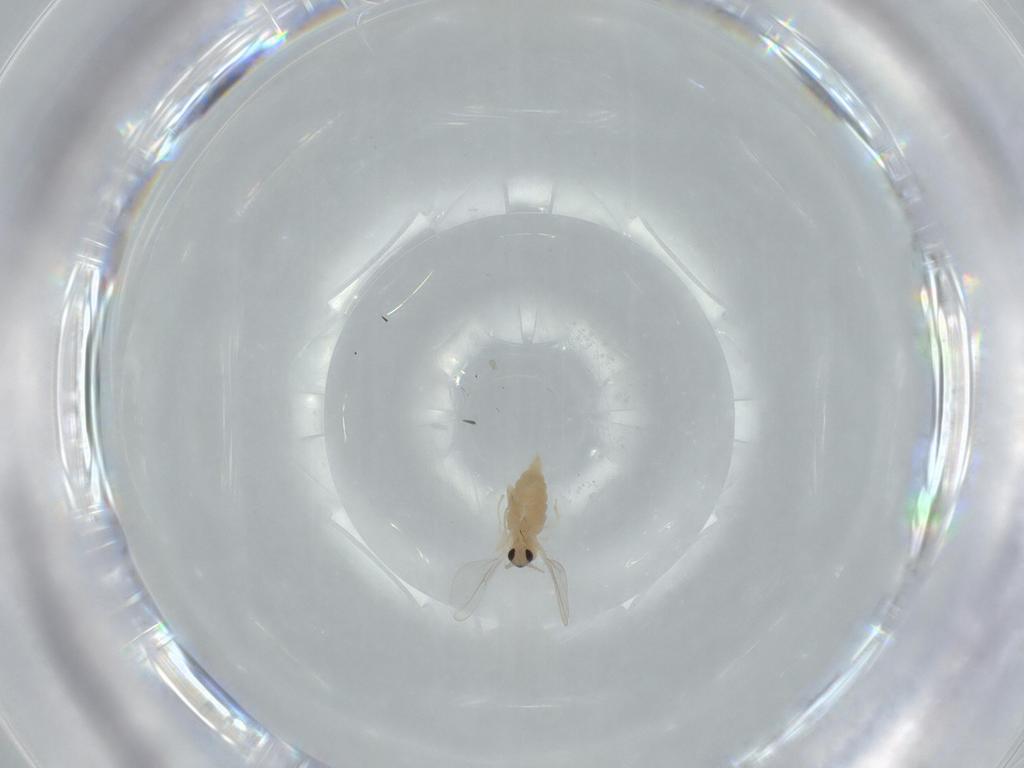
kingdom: Animalia
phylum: Arthropoda
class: Insecta
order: Diptera
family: Cecidomyiidae
